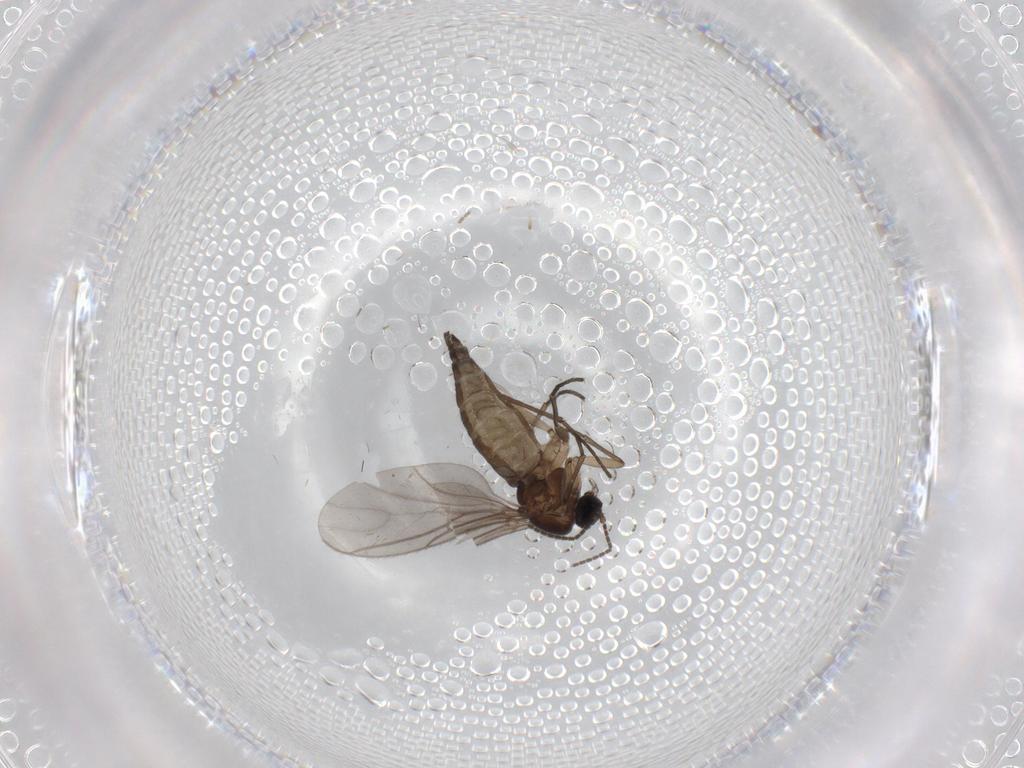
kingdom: Animalia
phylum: Arthropoda
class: Insecta
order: Diptera
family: Sciaridae
